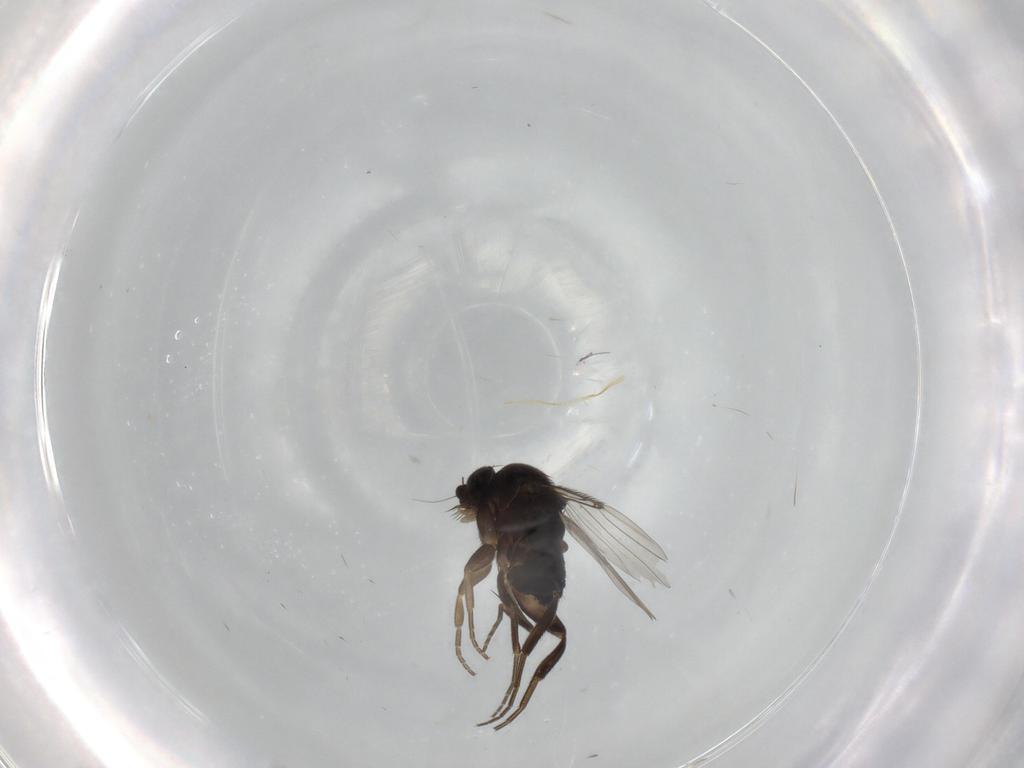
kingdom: Animalia
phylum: Arthropoda
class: Insecta
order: Diptera
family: Phoridae
